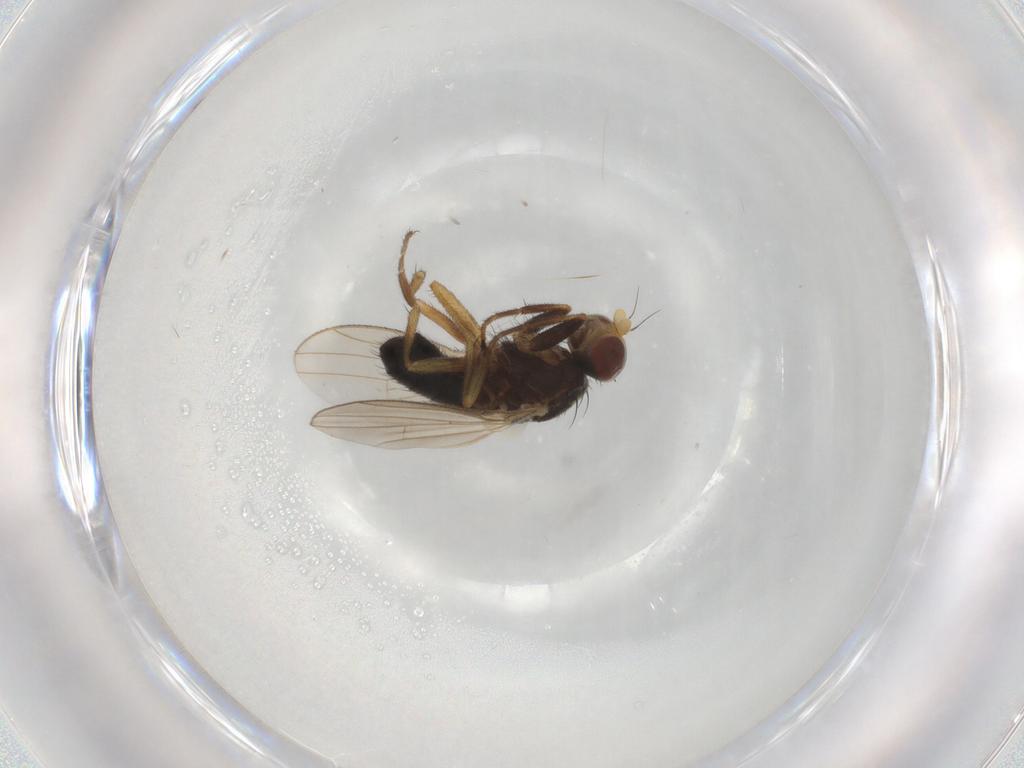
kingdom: Animalia
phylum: Arthropoda
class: Insecta
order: Diptera
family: Heleomyzidae
